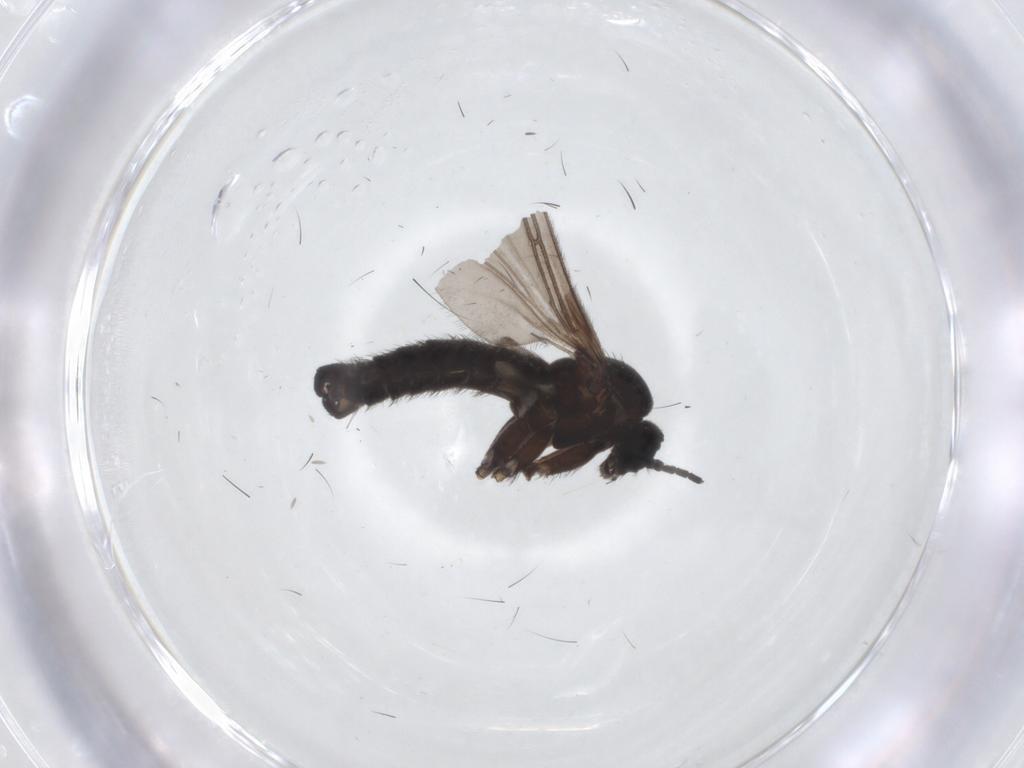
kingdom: Animalia
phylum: Arthropoda
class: Insecta
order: Diptera
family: Sciaridae
